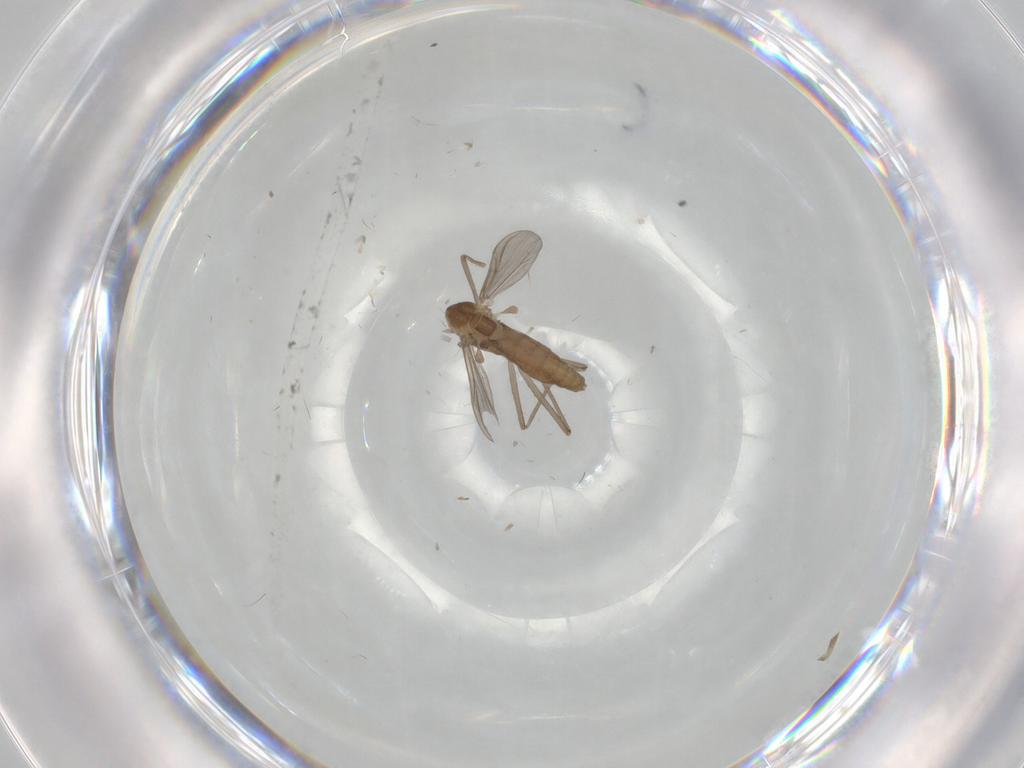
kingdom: Animalia
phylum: Arthropoda
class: Insecta
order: Diptera
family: Chironomidae
